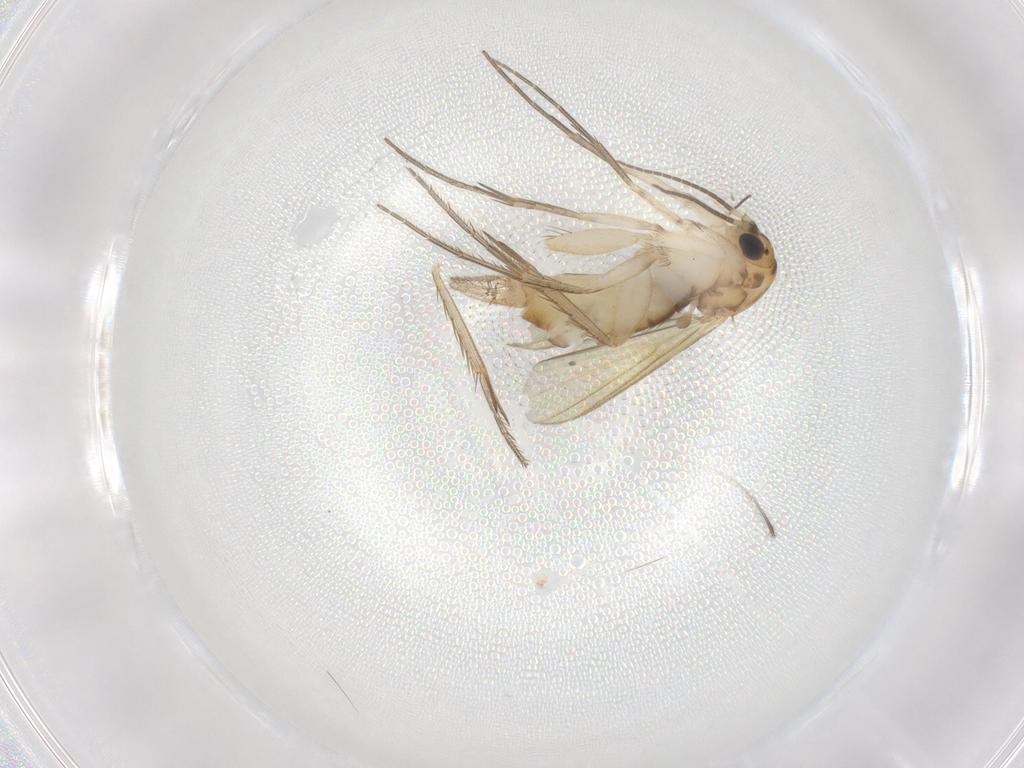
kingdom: Animalia
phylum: Arthropoda
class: Insecta
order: Diptera
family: Mycetophilidae
